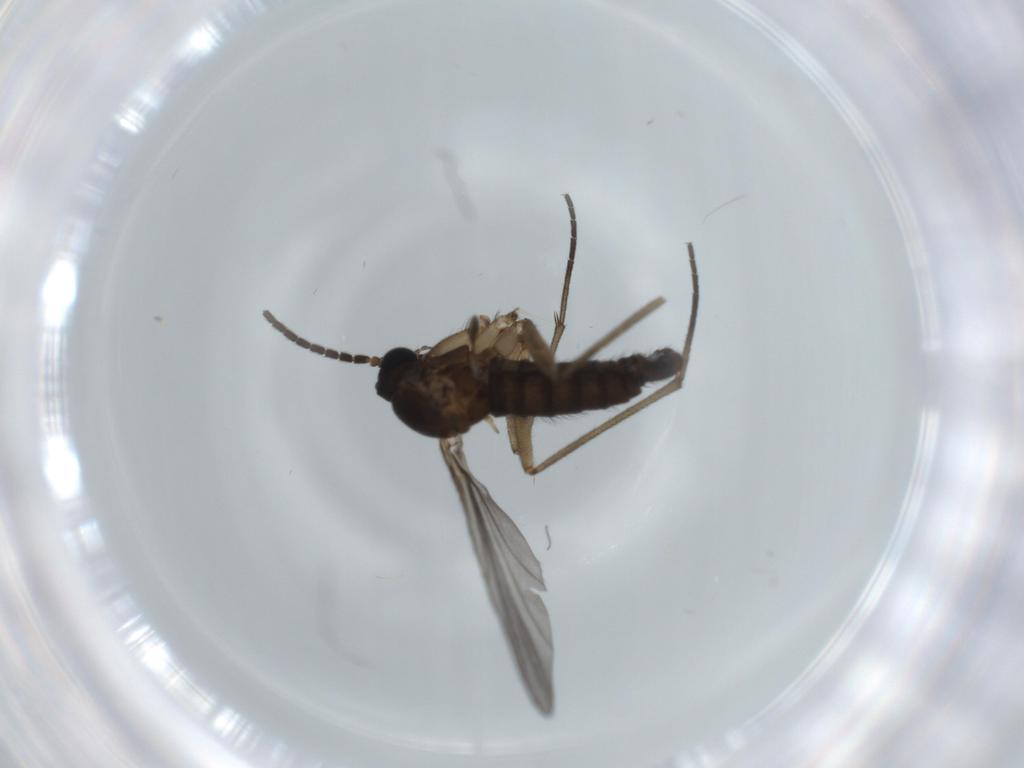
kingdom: Animalia
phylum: Arthropoda
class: Insecta
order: Diptera
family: Sciaridae
